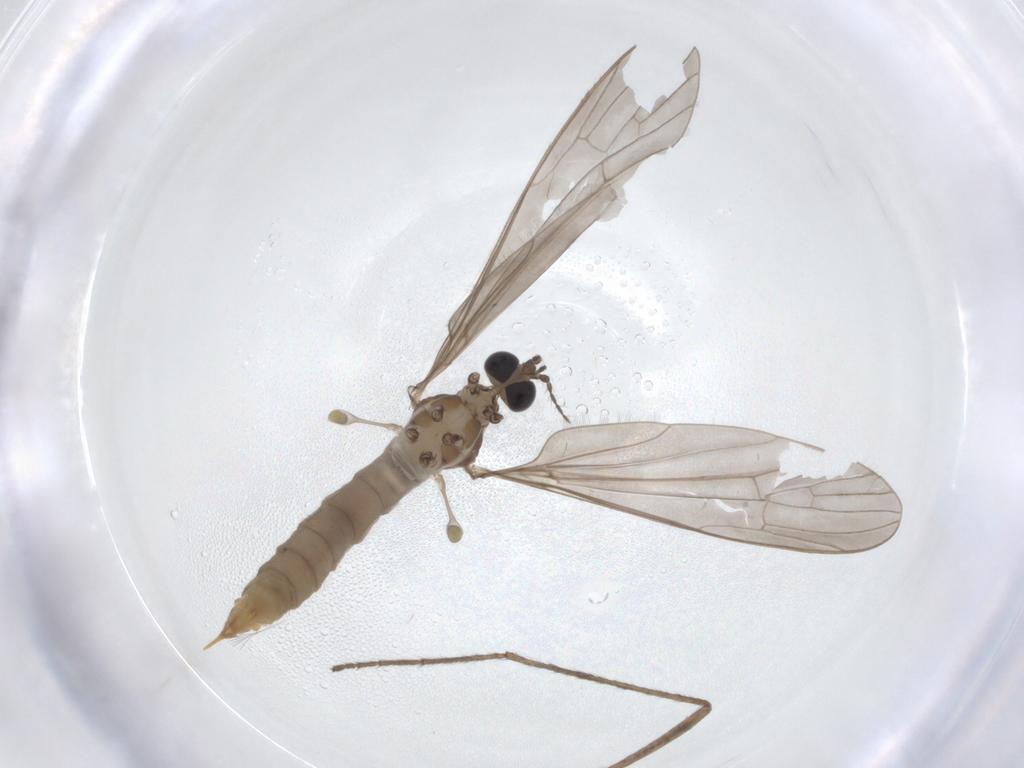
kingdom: Animalia
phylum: Arthropoda
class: Insecta
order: Diptera
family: Limoniidae
